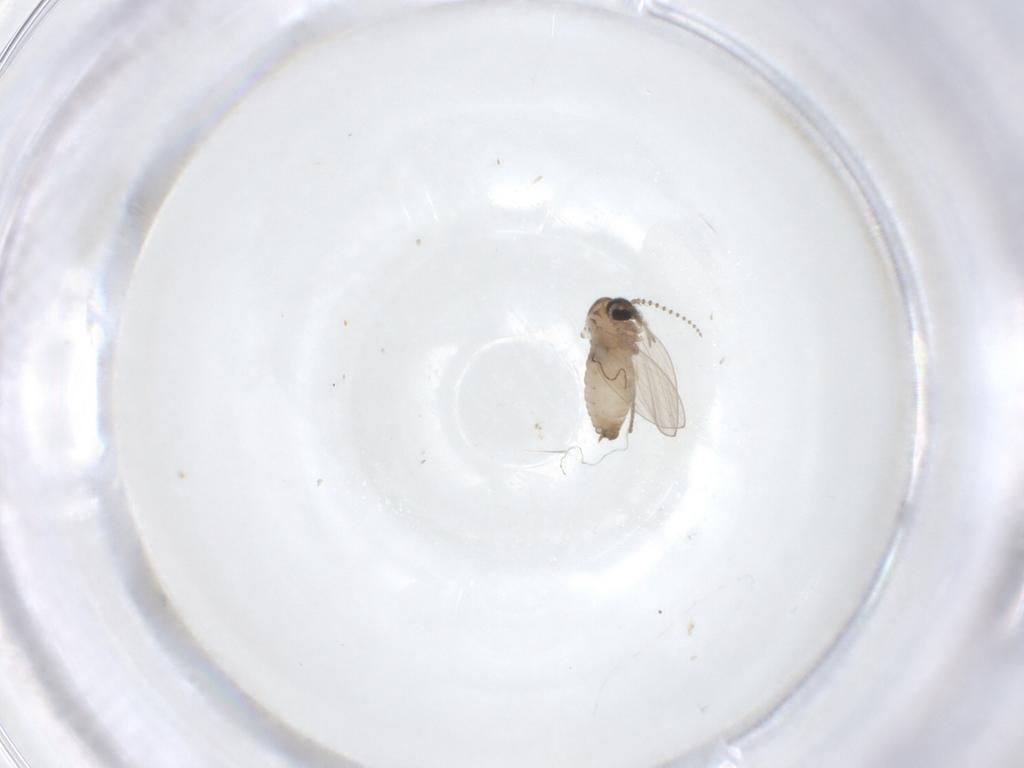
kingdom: Animalia
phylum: Arthropoda
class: Insecta
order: Diptera
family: Psychodidae
